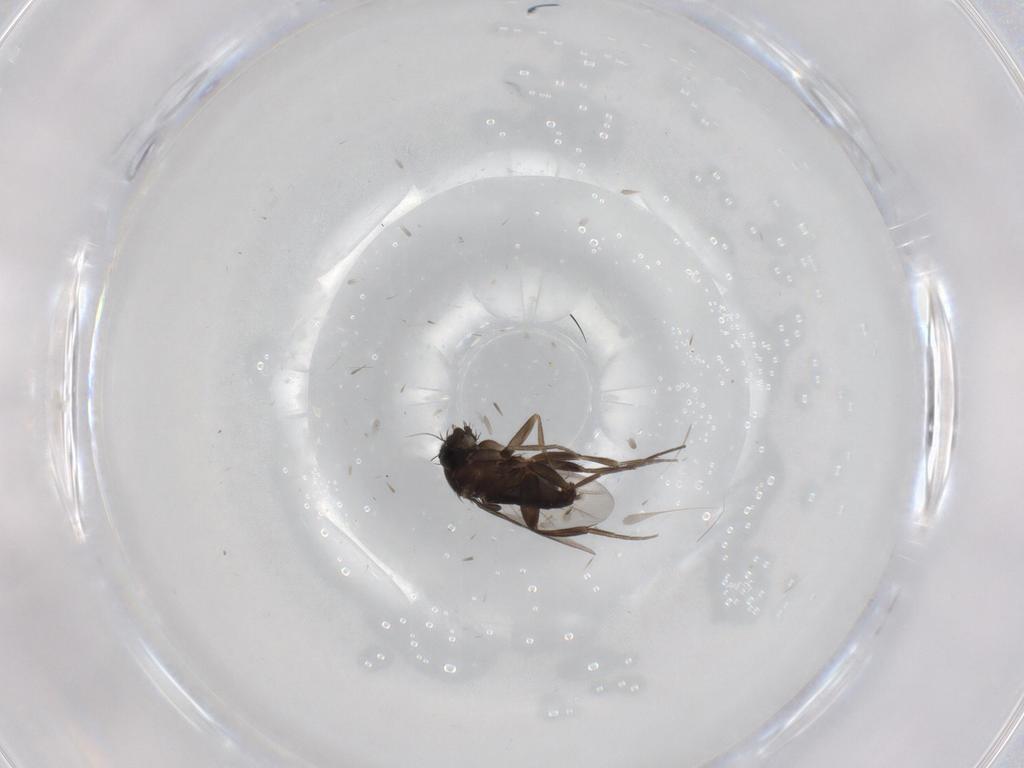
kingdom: Animalia
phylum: Arthropoda
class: Insecta
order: Diptera
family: Phoridae
